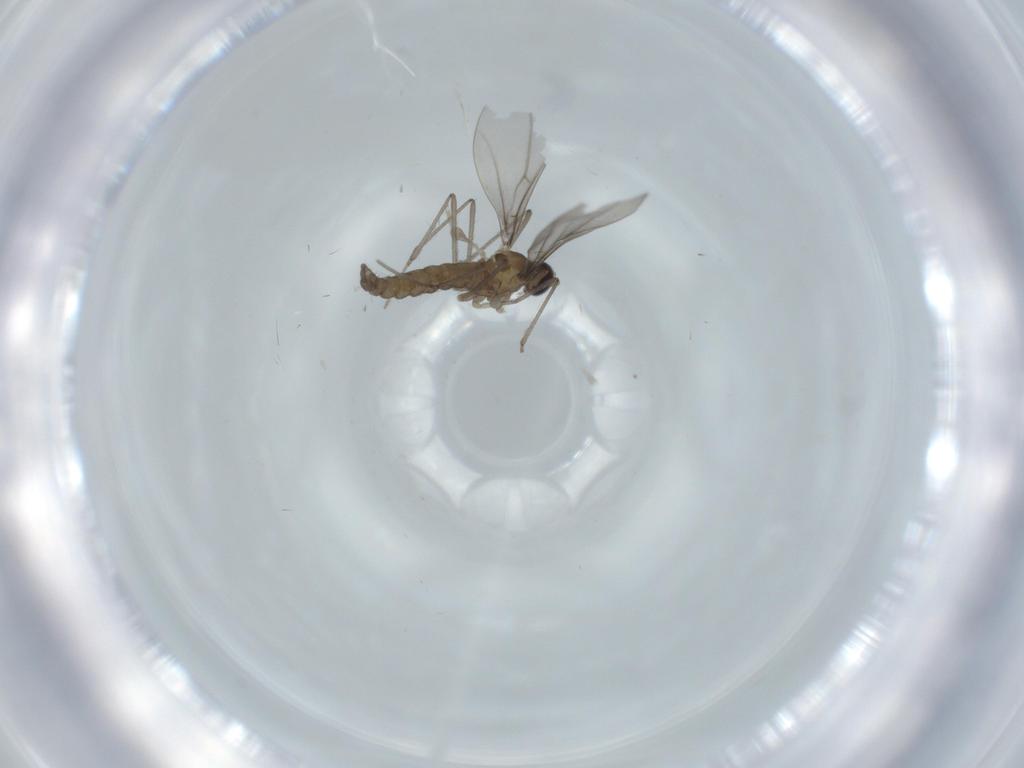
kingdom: Animalia
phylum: Arthropoda
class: Insecta
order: Diptera
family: Cecidomyiidae
